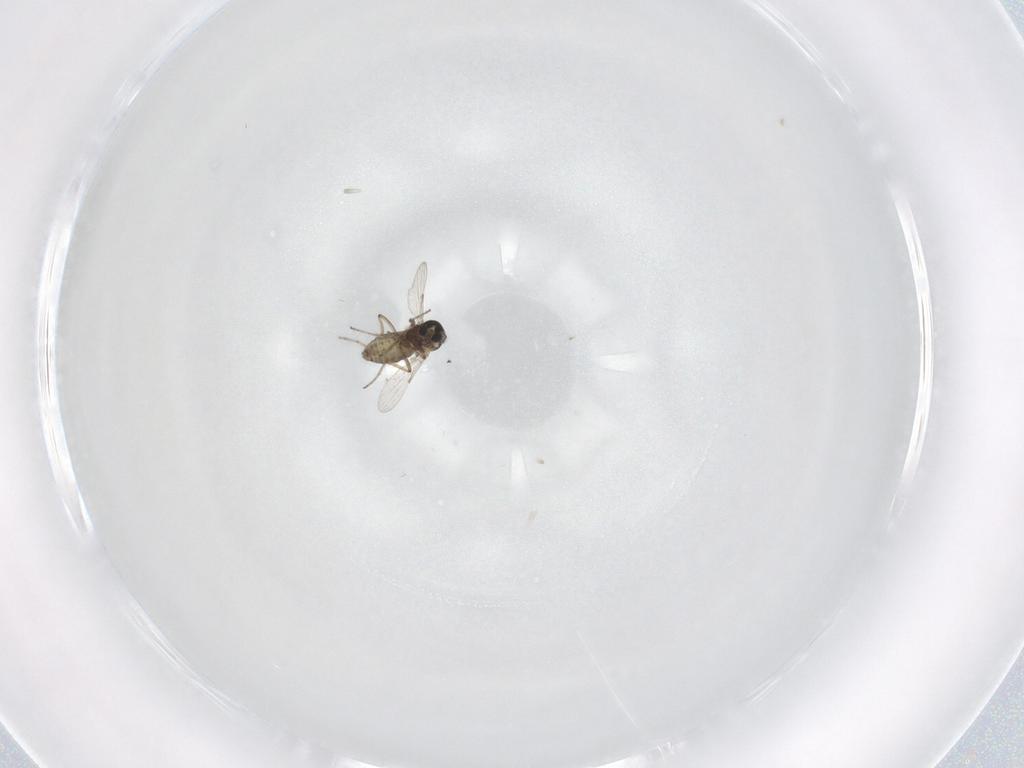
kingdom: Animalia
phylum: Arthropoda
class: Insecta
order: Diptera
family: Ceratopogonidae
